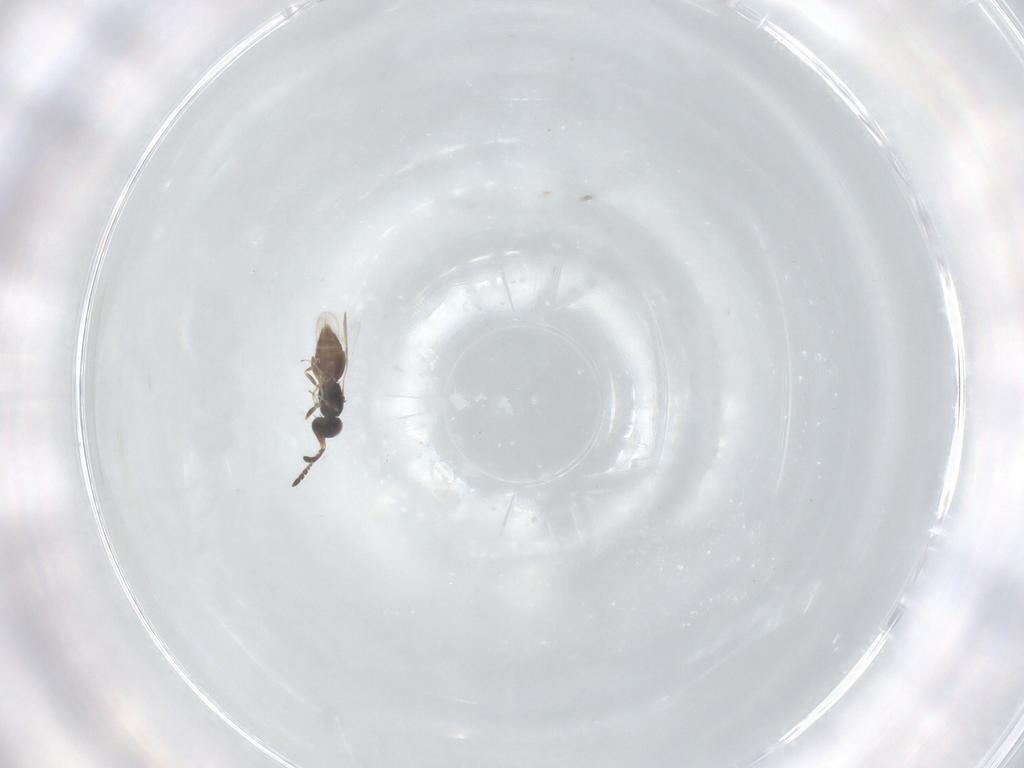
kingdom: Animalia
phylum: Arthropoda
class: Insecta
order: Hymenoptera
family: Ceraphronidae
